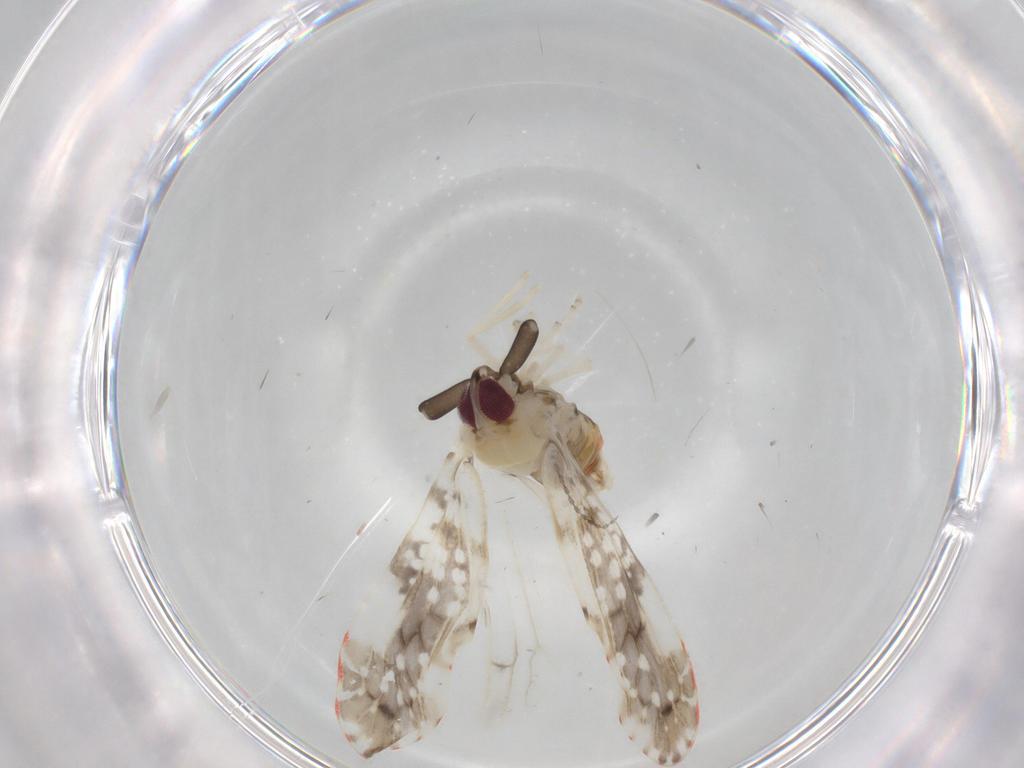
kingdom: Animalia
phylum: Arthropoda
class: Insecta
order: Hemiptera
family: Derbidae
